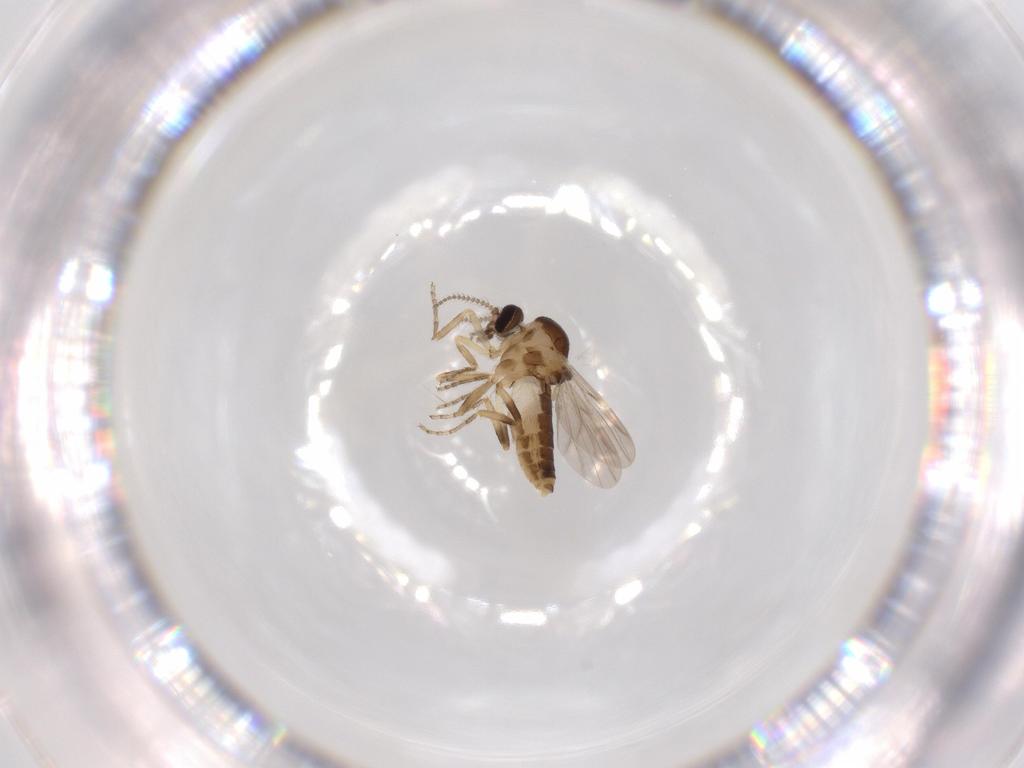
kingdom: Animalia
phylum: Arthropoda
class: Insecta
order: Diptera
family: Ceratopogonidae
